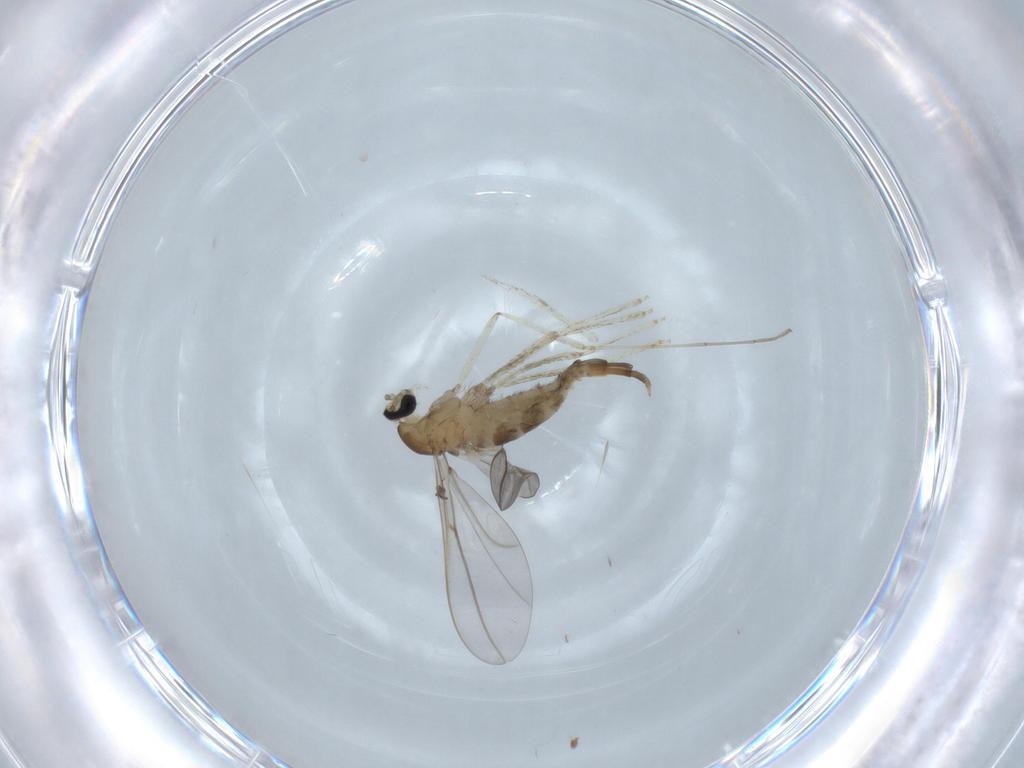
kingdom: Animalia
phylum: Arthropoda
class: Insecta
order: Diptera
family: Cecidomyiidae
